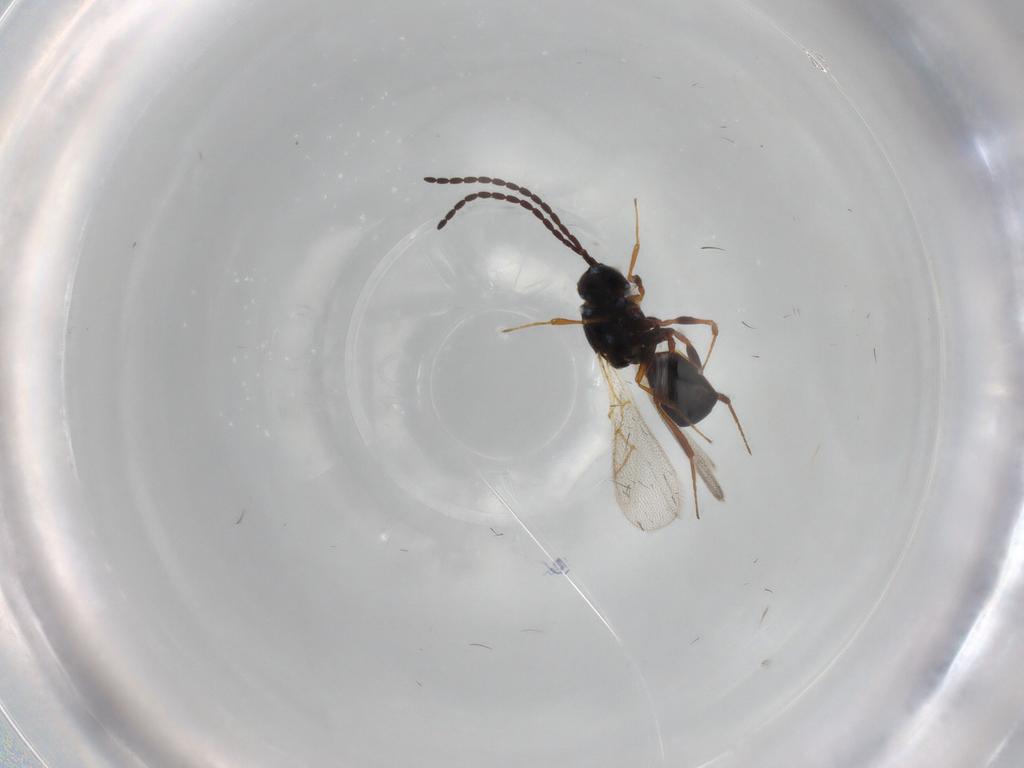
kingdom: Animalia
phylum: Arthropoda
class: Insecta
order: Hymenoptera
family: Figitidae
